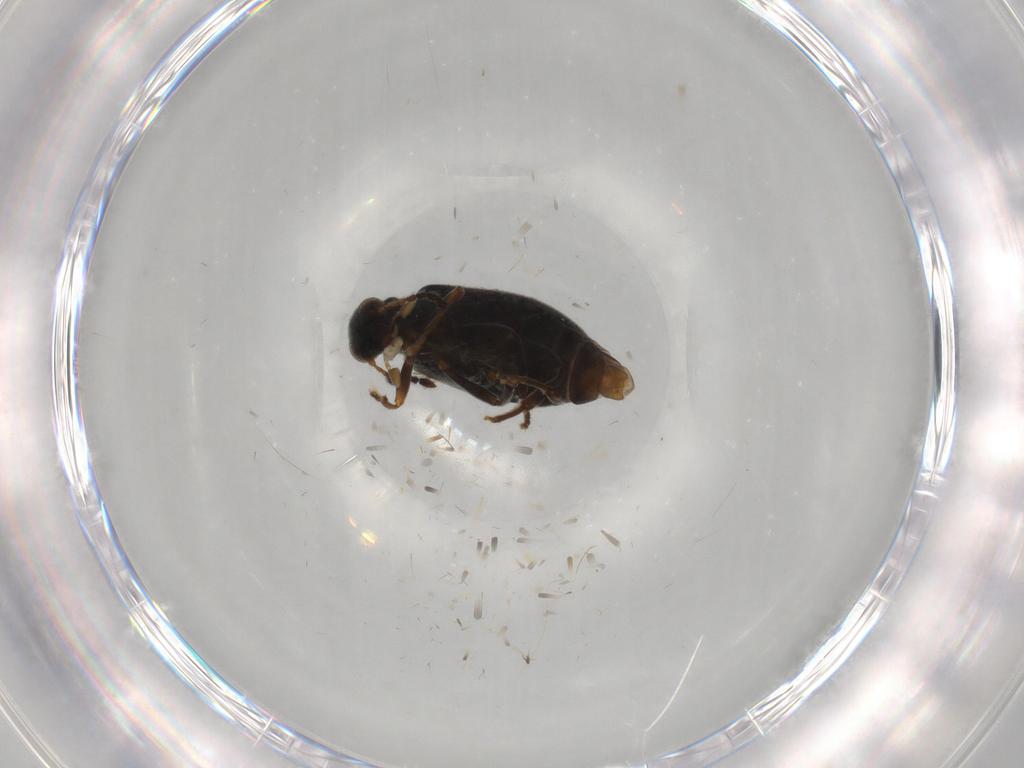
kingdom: Animalia
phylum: Arthropoda
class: Insecta
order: Coleoptera
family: Aderidae
